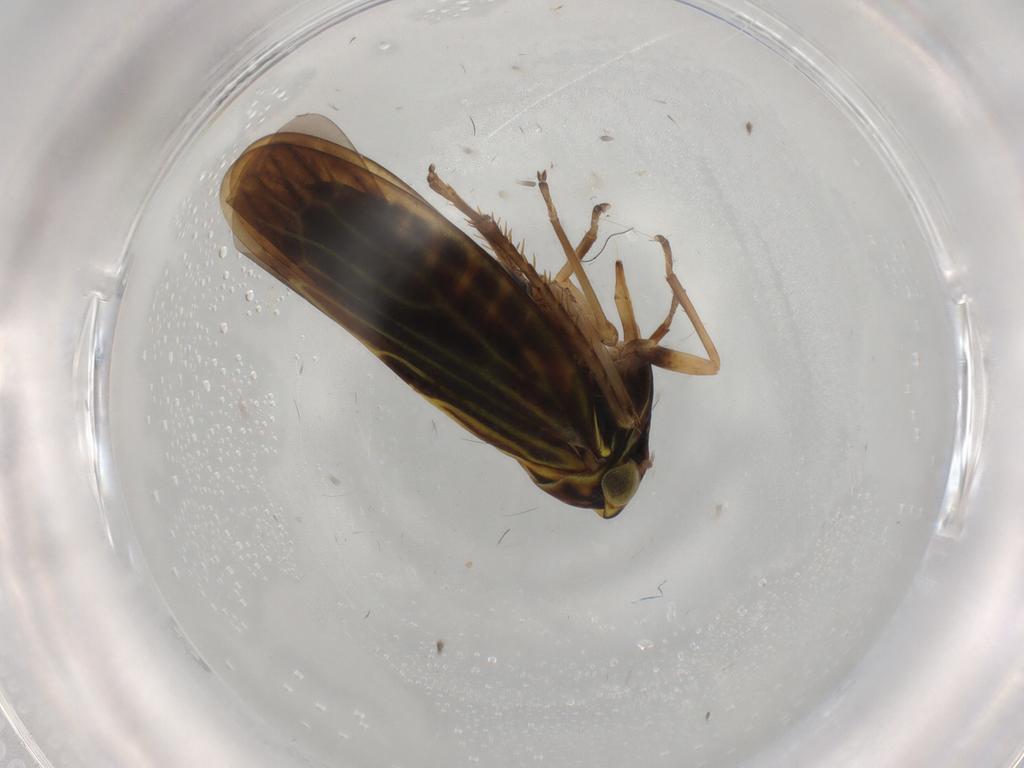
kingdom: Animalia
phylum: Arthropoda
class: Insecta
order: Hemiptera
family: Cicadellidae
